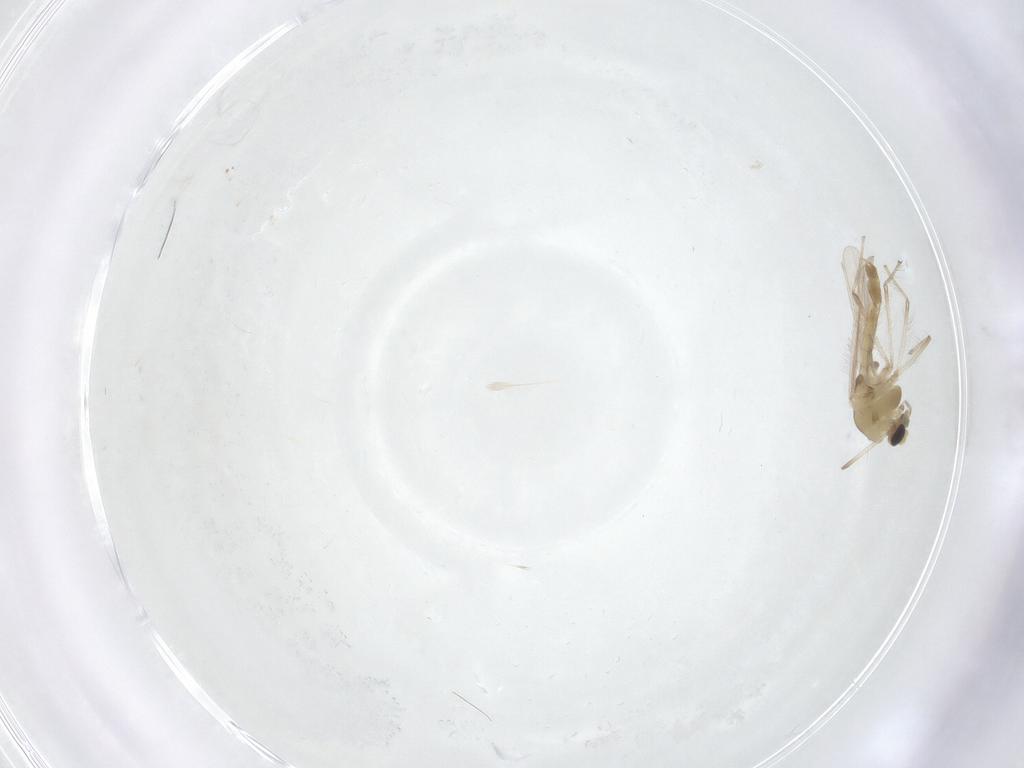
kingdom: Animalia
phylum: Arthropoda
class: Insecta
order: Diptera
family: Chironomidae
